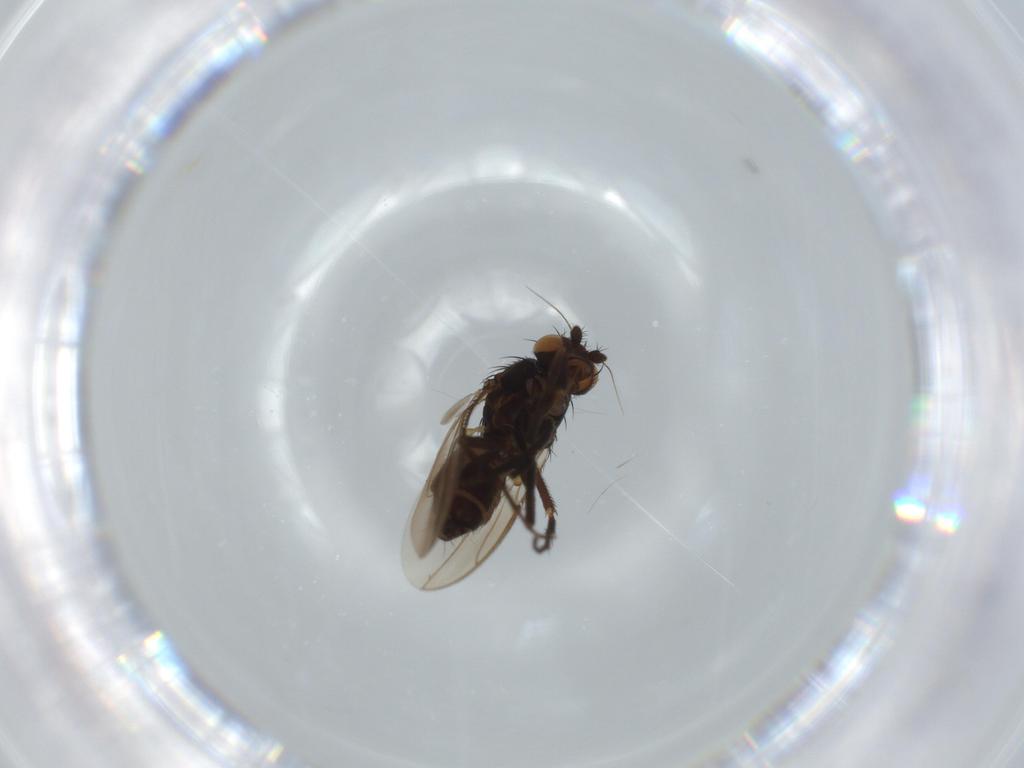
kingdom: Animalia
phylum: Arthropoda
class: Insecta
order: Diptera
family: Sphaeroceridae
